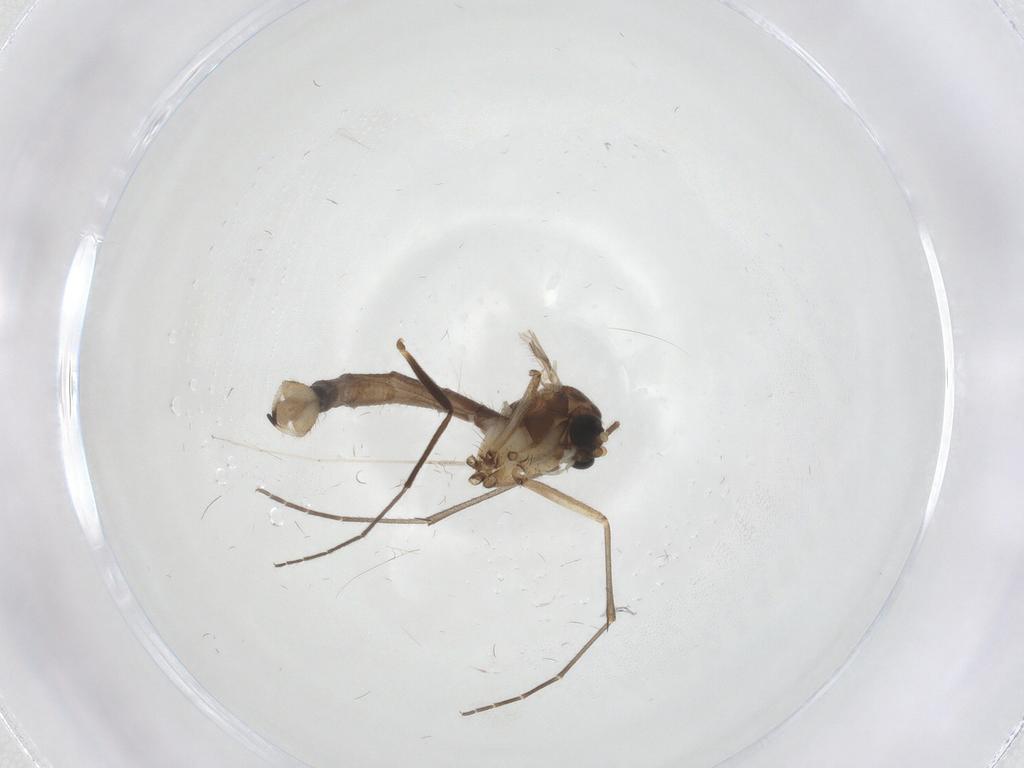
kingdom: Animalia
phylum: Arthropoda
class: Insecta
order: Diptera
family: Mycetophilidae
